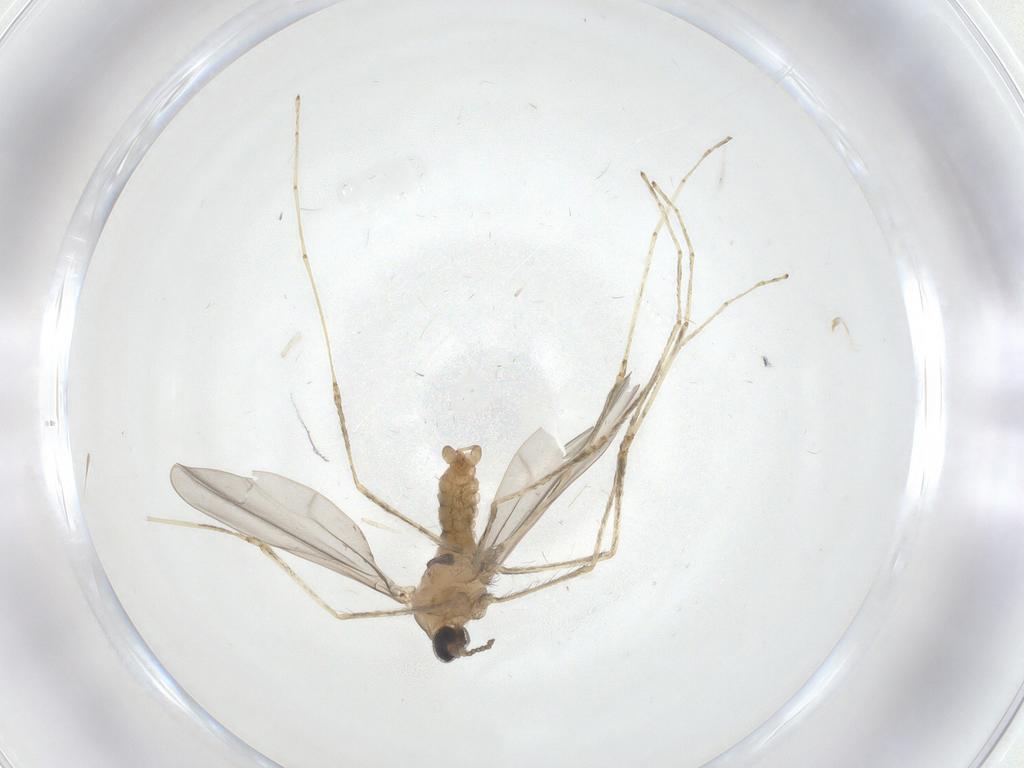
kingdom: Animalia
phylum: Arthropoda
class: Insecta
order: Diptera
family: Cecidomyiidae
